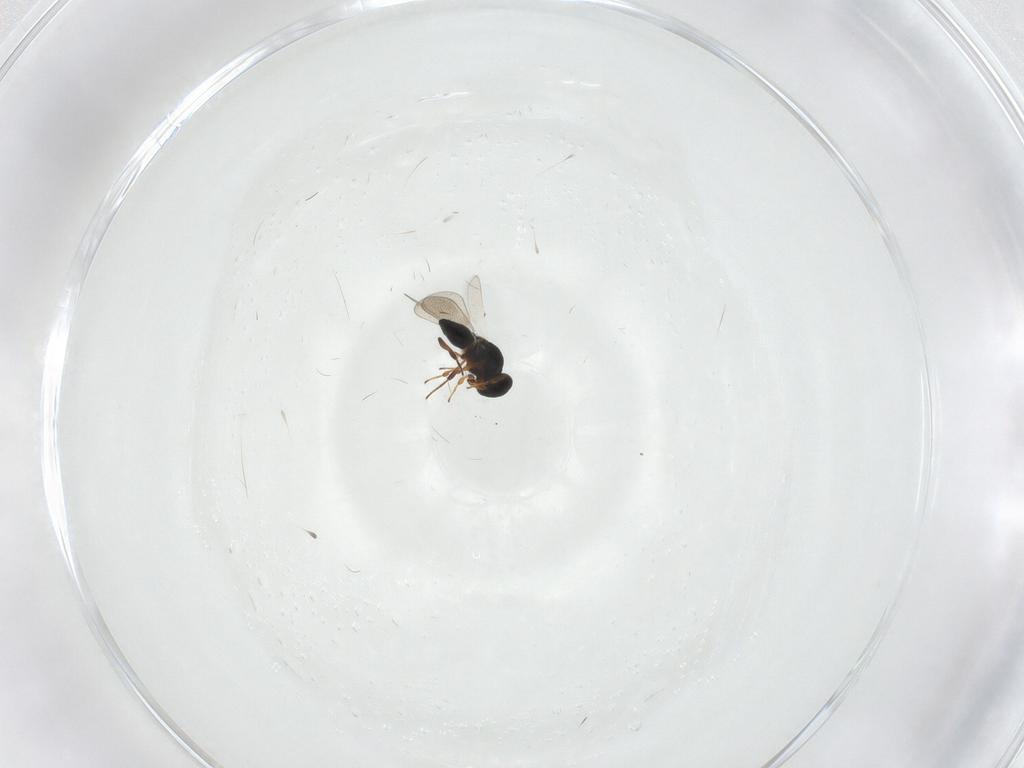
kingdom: Animalia
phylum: Arthropoda
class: Insecta
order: Hymenoptera
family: Platygastridae
